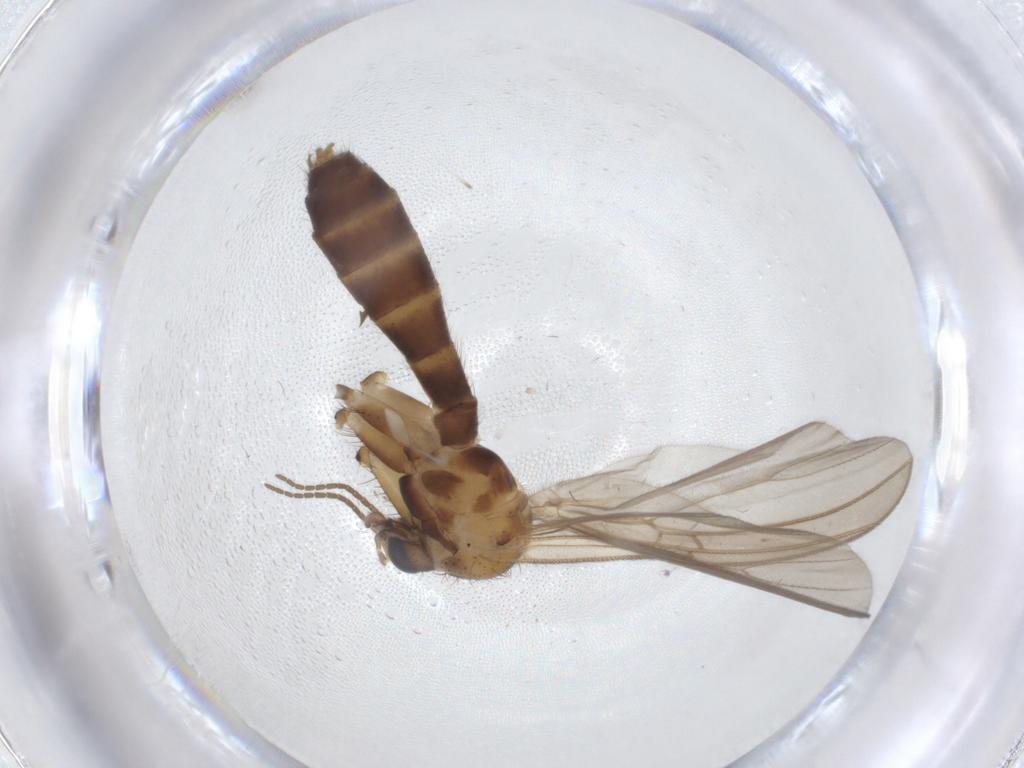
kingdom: Animalia
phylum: Arthropoda
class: Insecta
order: Diptera
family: Mycetophilidae
